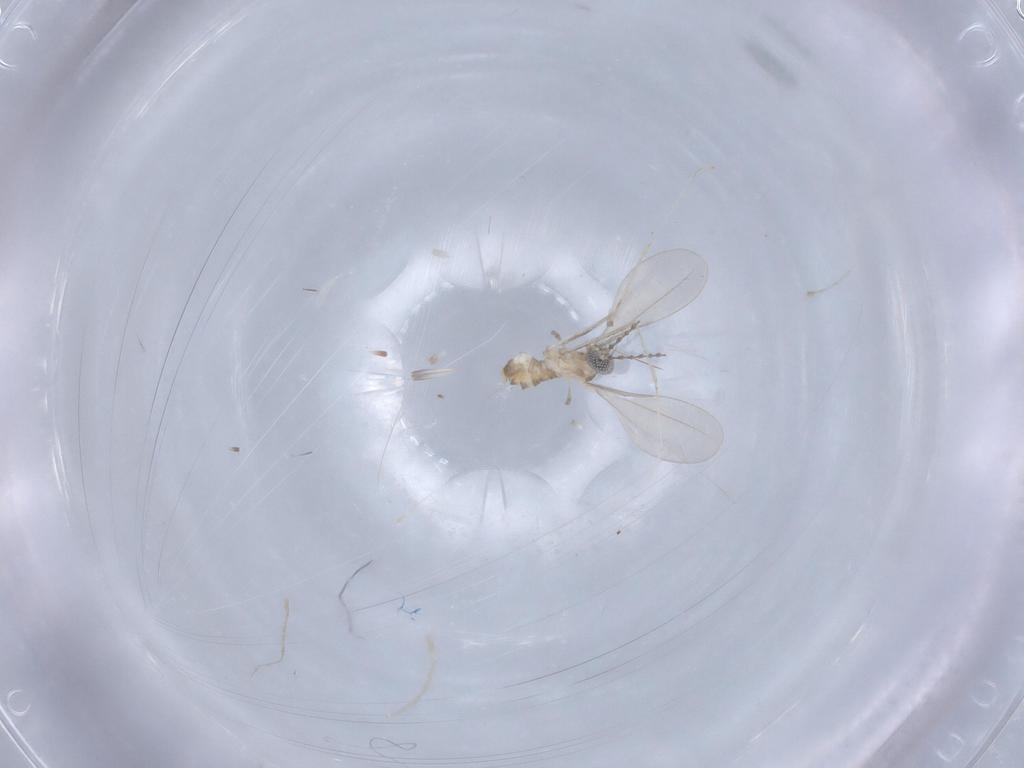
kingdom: Animalia
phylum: Arthropoda
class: Insecta
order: Diptera
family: Cecidomyiidae
